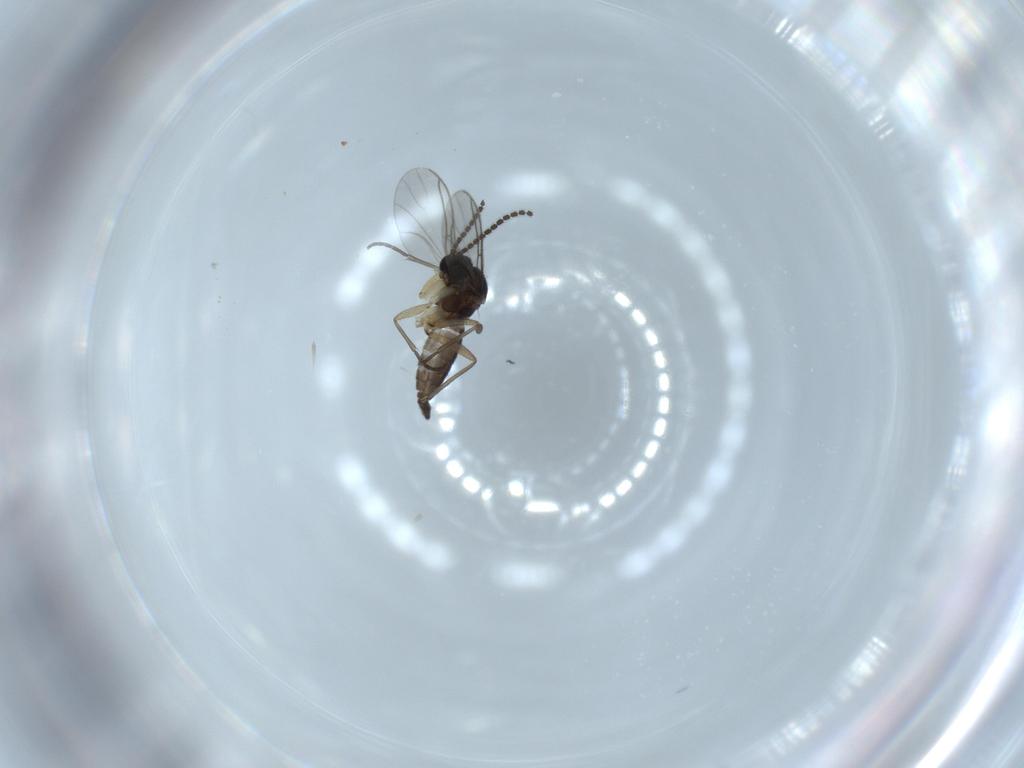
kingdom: Animalia
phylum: Arthropoda
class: Insecta
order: Diptera
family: Sciaridae
